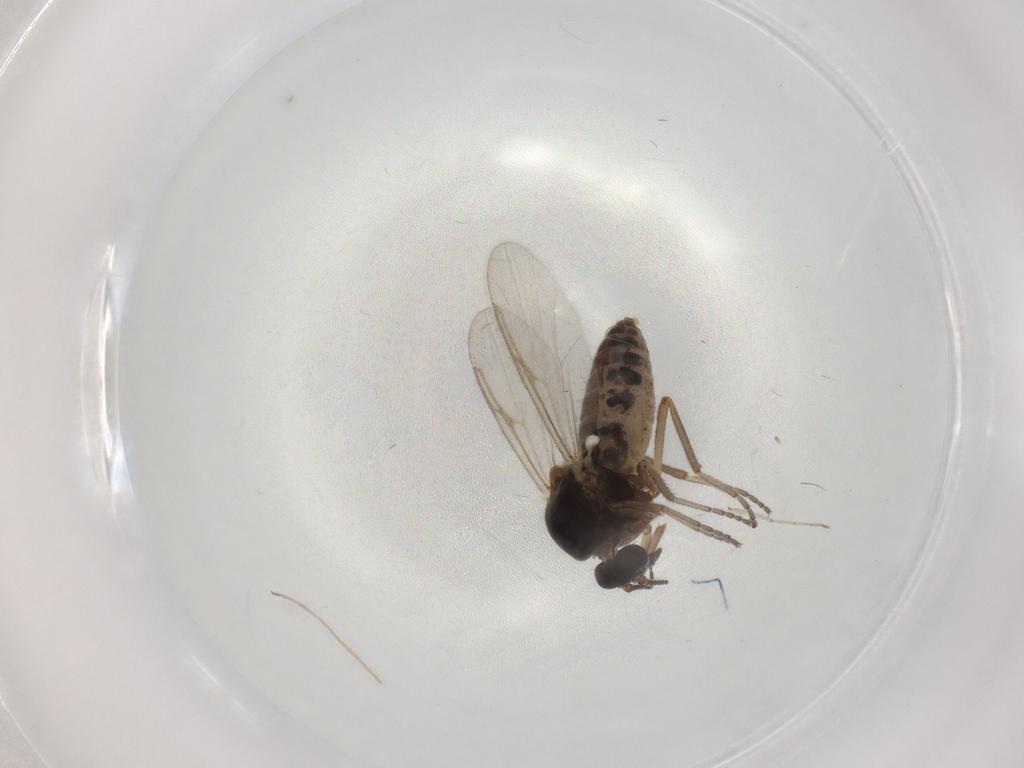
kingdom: Animalia
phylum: Arthropoda
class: Insecta
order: Diptera
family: Ceratopogonidae
